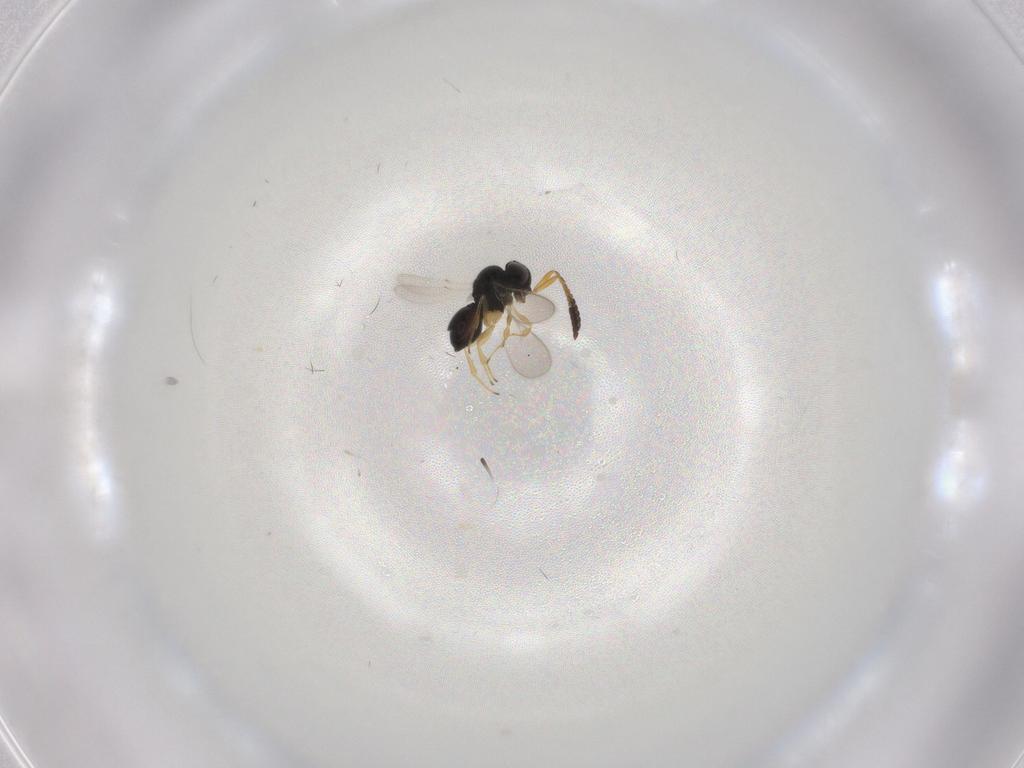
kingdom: Animalia
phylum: Arthropoda
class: Insecta
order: Hymenoptera
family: Scelionidae
